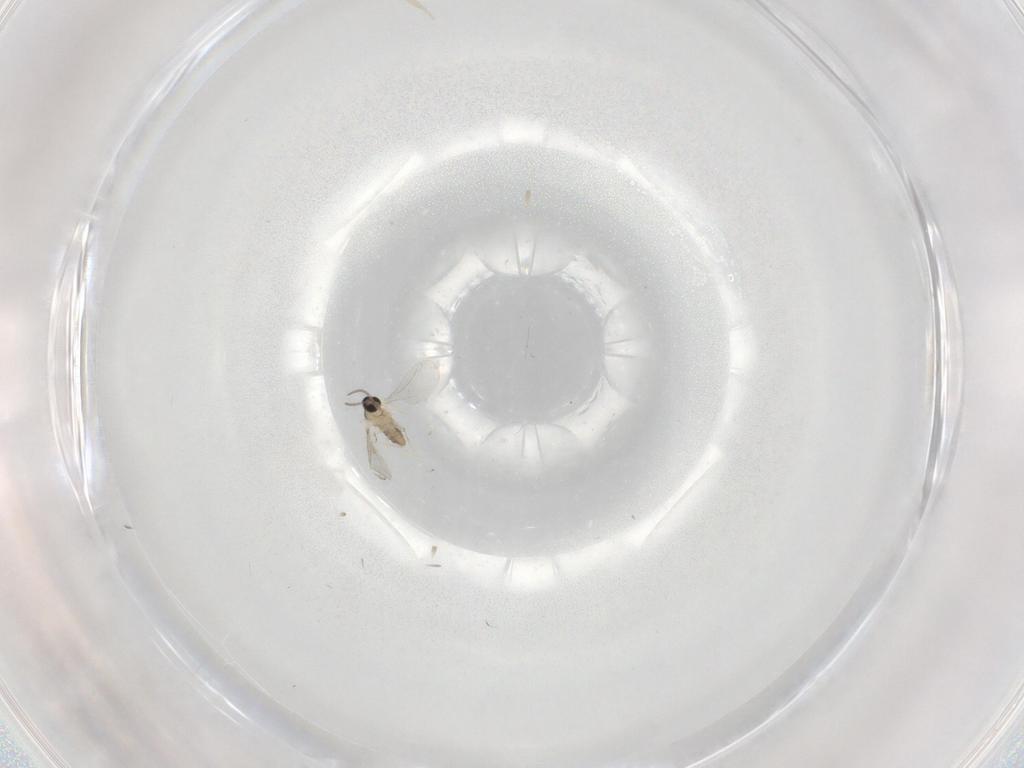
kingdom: Animalia
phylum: Arthropoda
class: Insecta
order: Diptera
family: Cecidomyiidae
